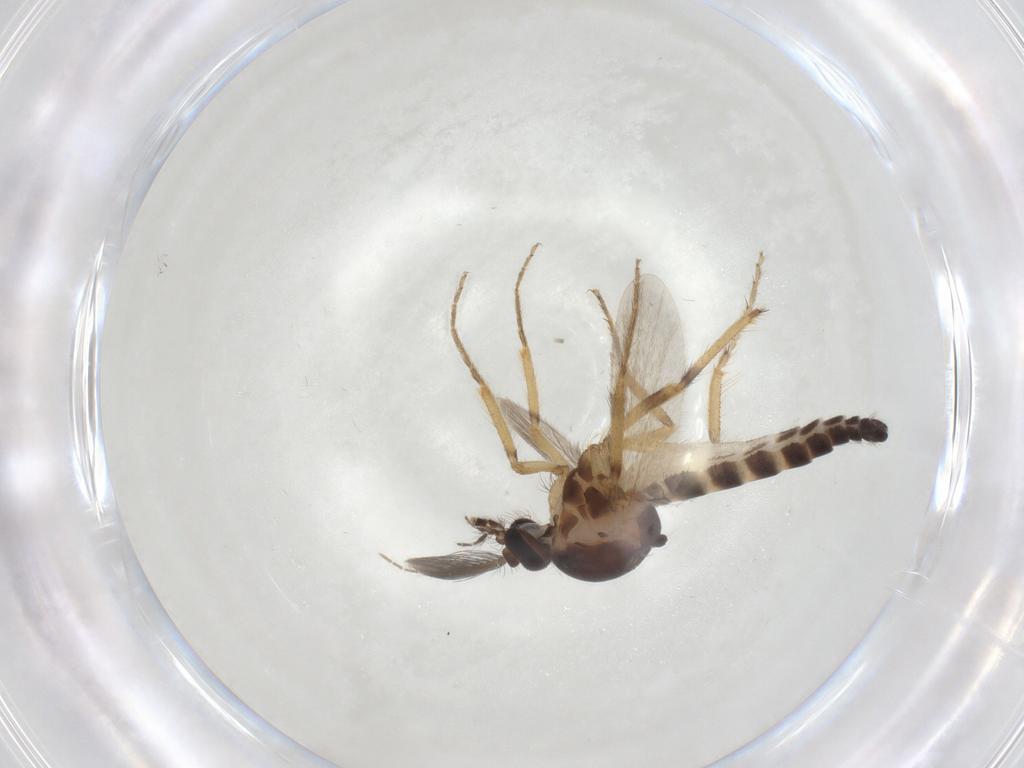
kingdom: Animalia
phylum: Arthropoda
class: Insecta
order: Diptera
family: Ceratopogonidae
